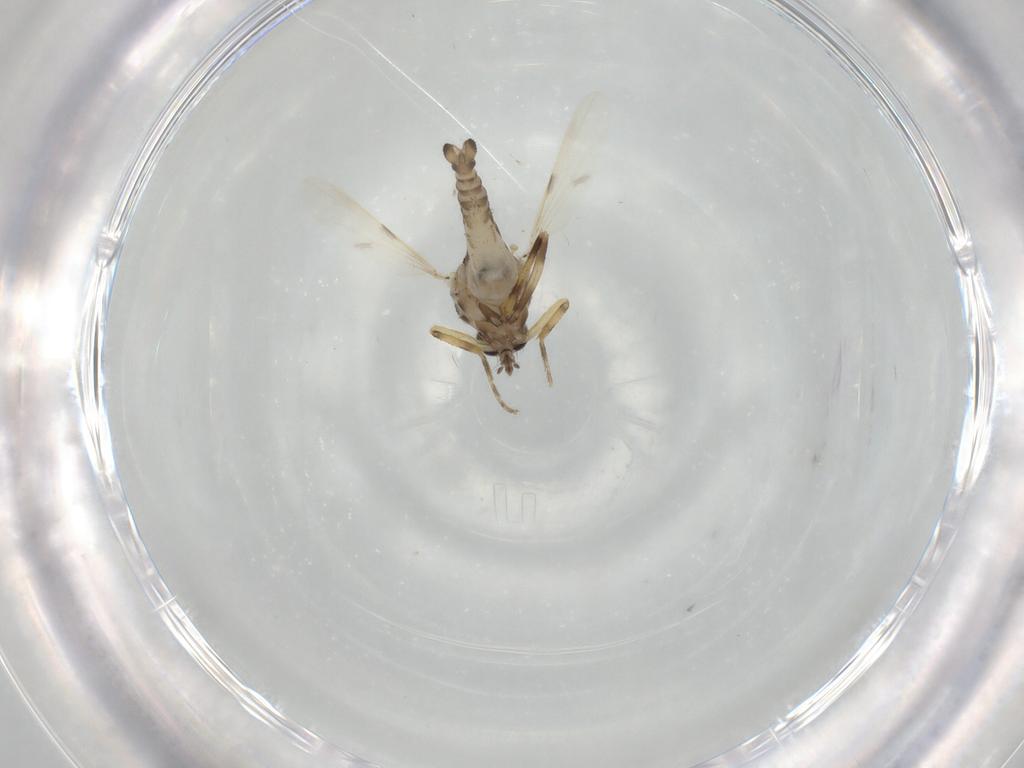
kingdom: Animalia
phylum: Arthropoda
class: Insecta
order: Diptera
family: Ceratopogonidae
